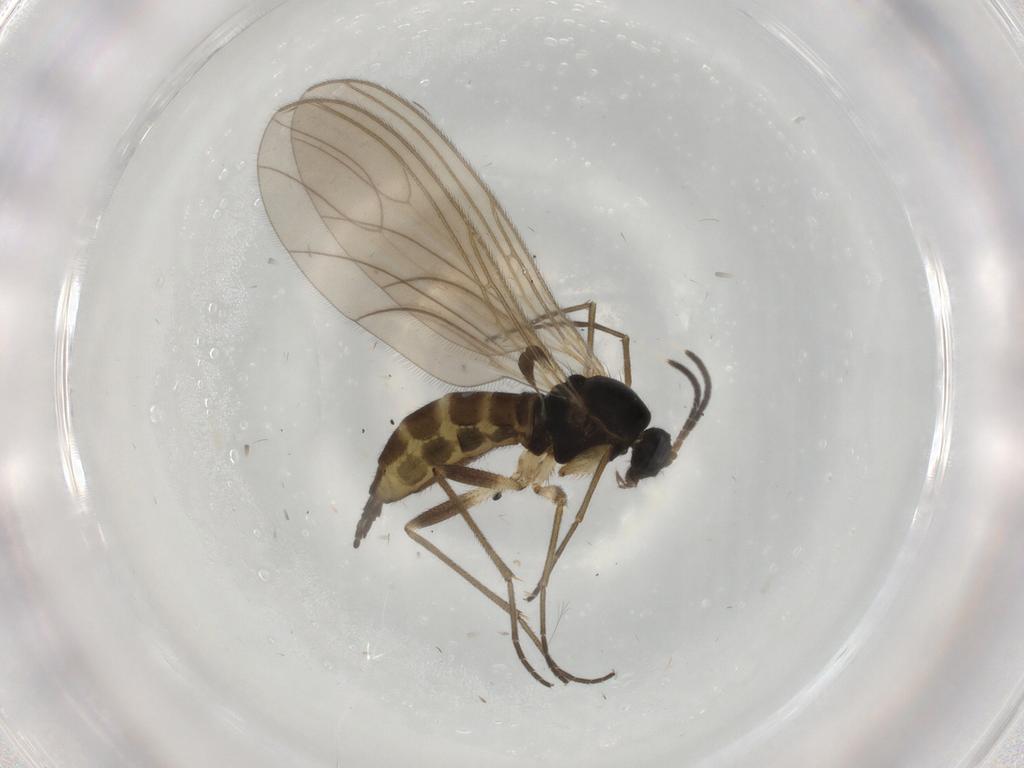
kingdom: Animalia
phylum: Arthropoda
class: Insecta
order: Diptera
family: Sciaridae
